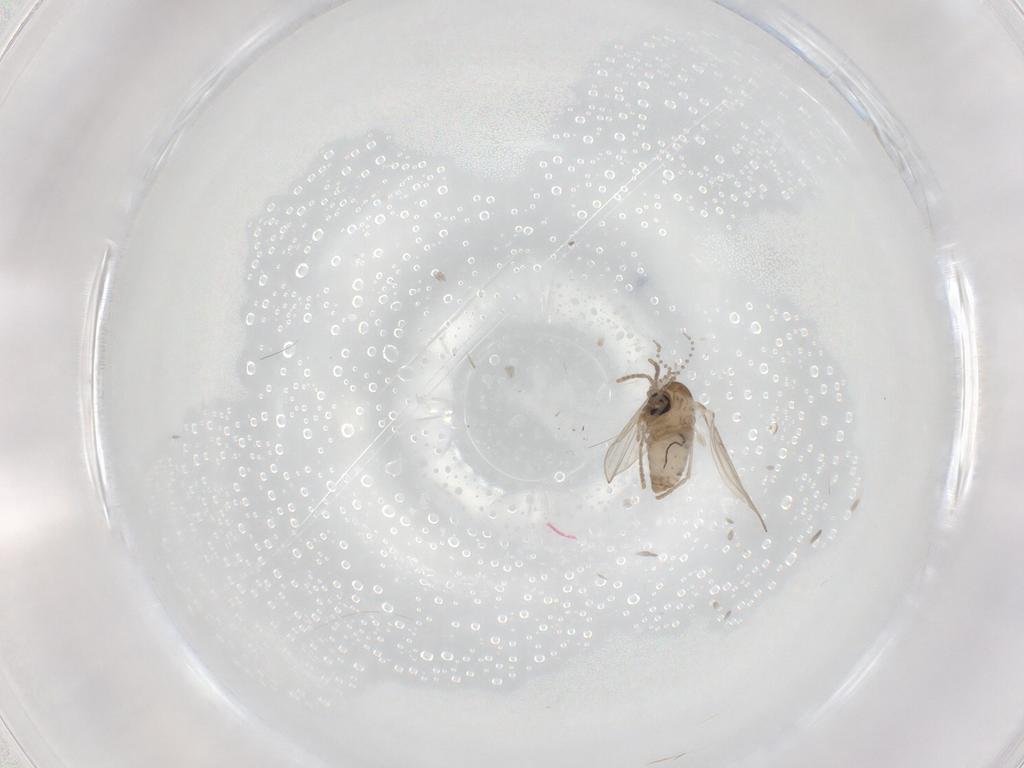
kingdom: Animalia
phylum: Arthropoda
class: Insecta
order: Diptera
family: Psychodidae
